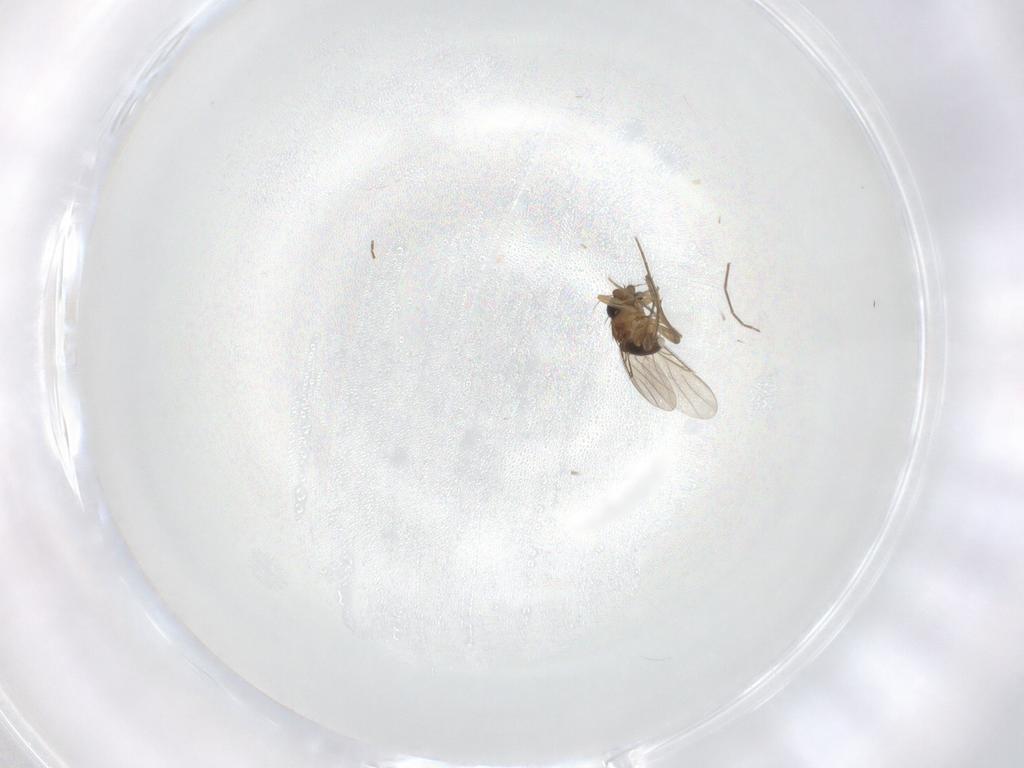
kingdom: Animalia
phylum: Arthropoda
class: Insecta
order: Diptera
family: Phoridae
